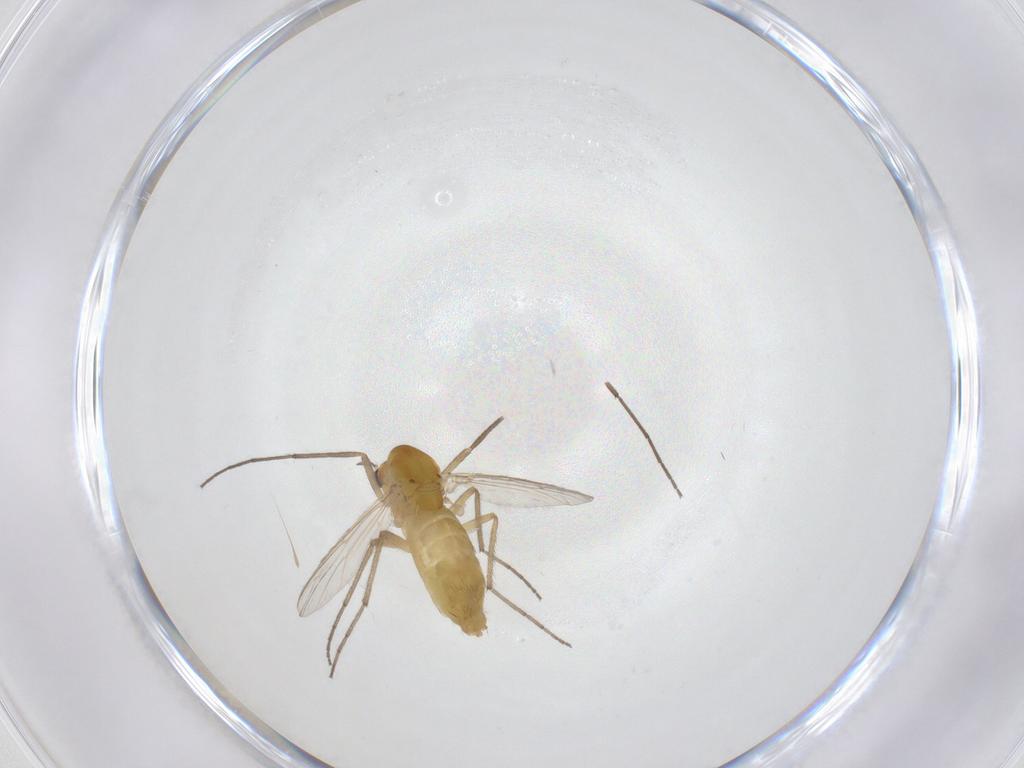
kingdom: Animalia
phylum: Arthropoda
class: Insecta
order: Diptera
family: Chironomidae
